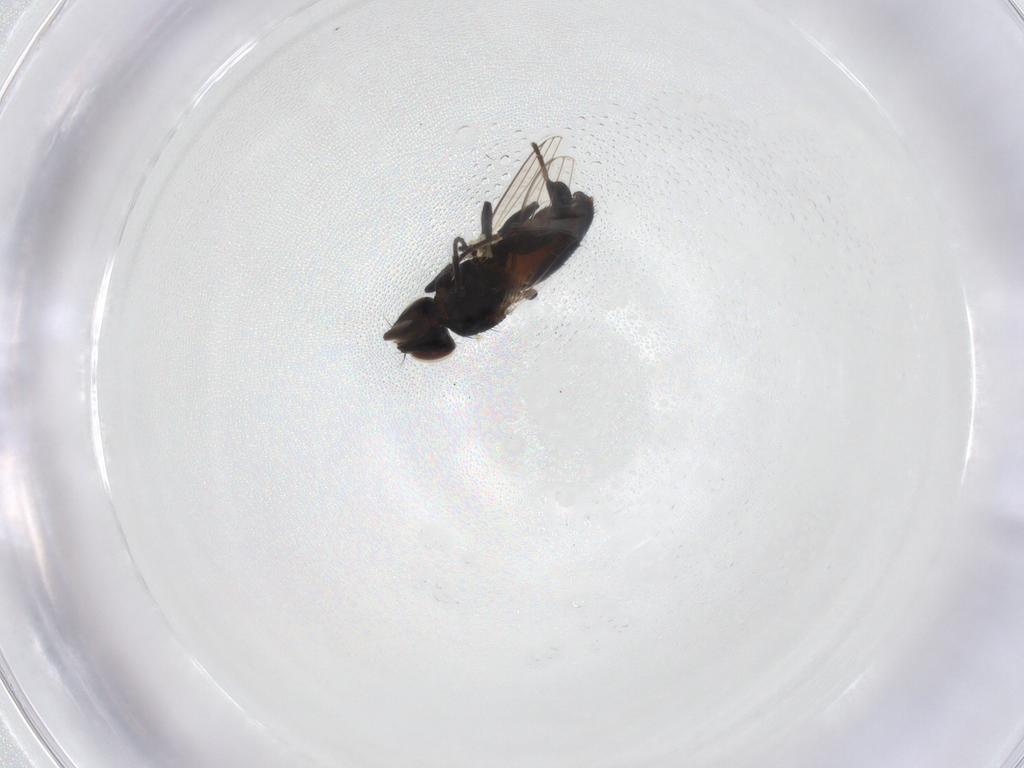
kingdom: Animalia
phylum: Arthropoda
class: Insecta
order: Diptera
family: Milichiidae
